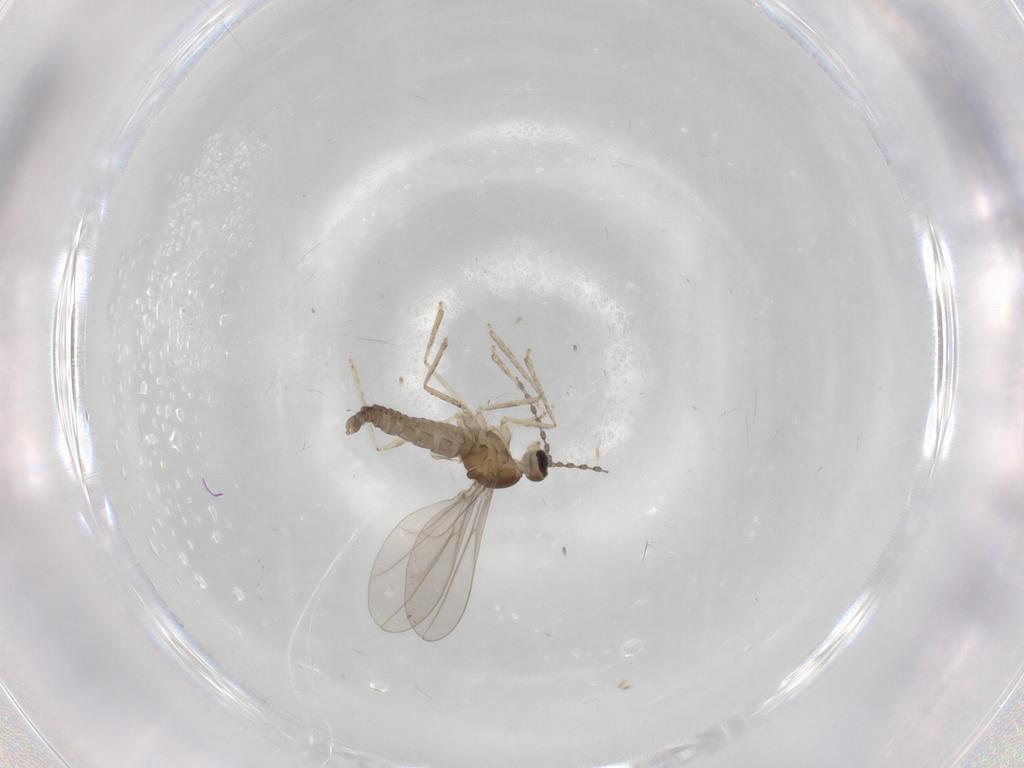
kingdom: Animalia
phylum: Arthropoda
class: Insecta
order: Diptera
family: Cecidomyiidae
